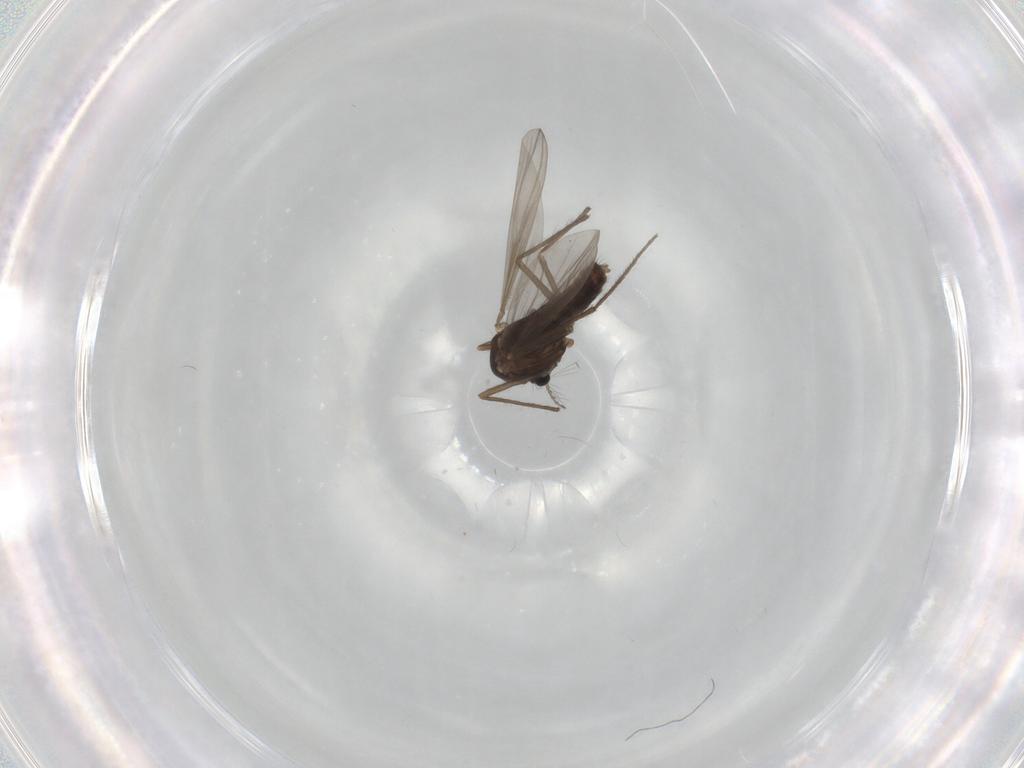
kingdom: Animalia
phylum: Arthropoda
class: Insecta
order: Diptera
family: Chironomidae
